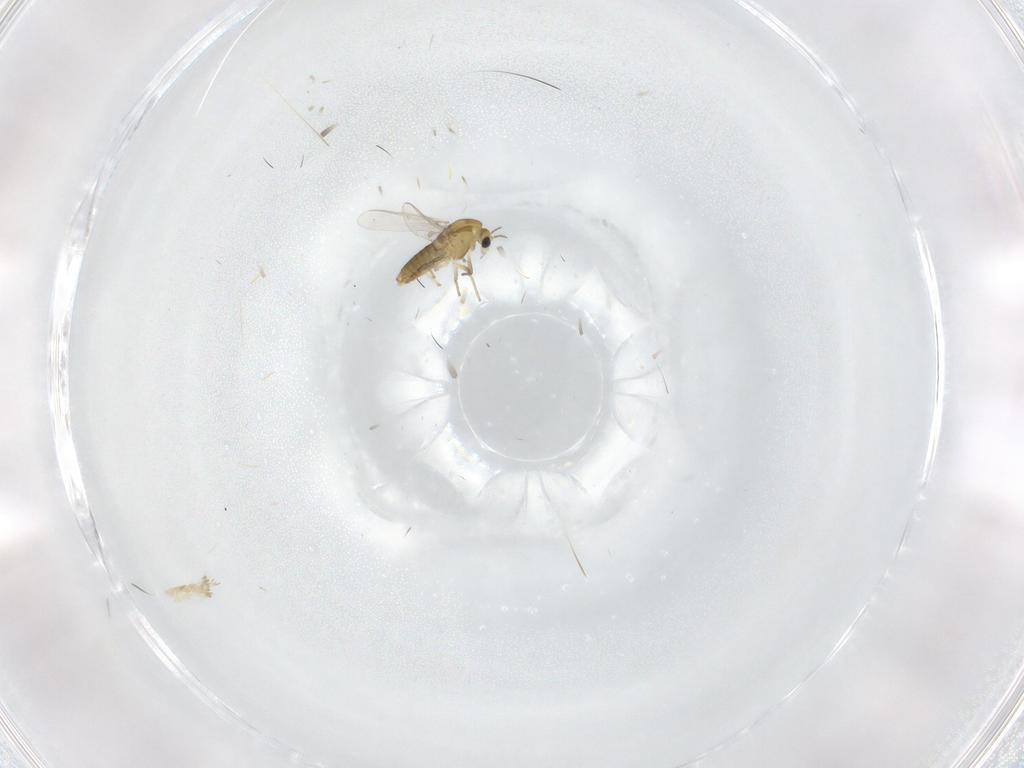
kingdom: Animalia
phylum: Arthropoda
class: Insecta
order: Diptera
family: Chironomidae
